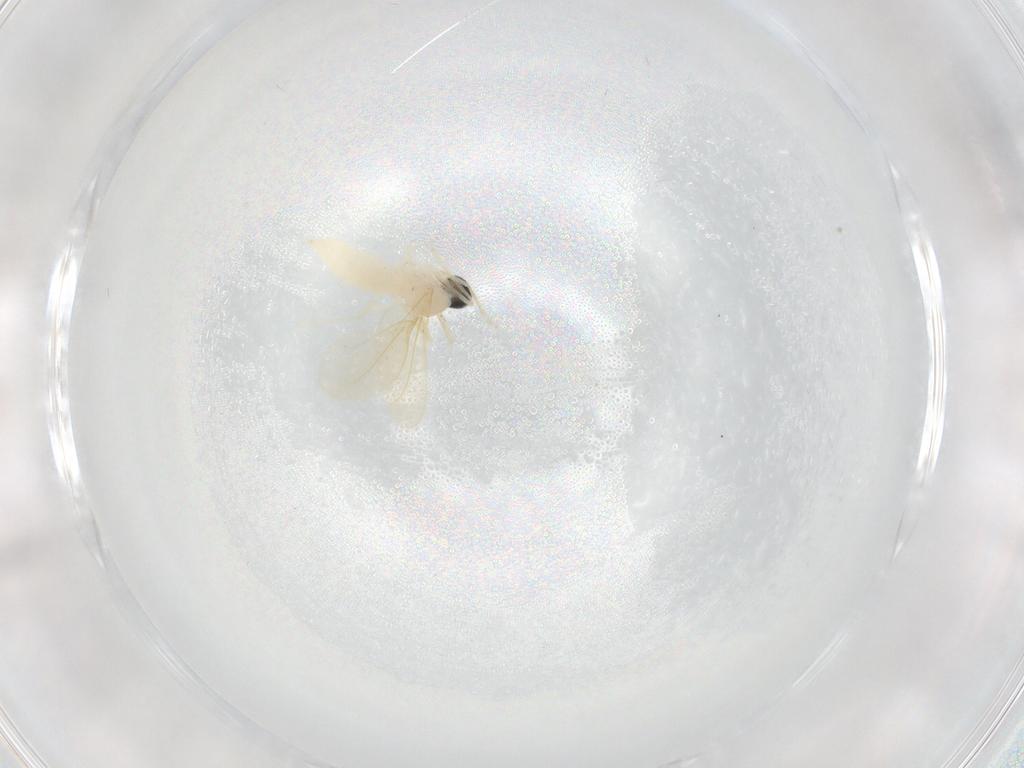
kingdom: Animalia
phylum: Arthropoda
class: Insecta
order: Diptera
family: Cecidomyiidae
